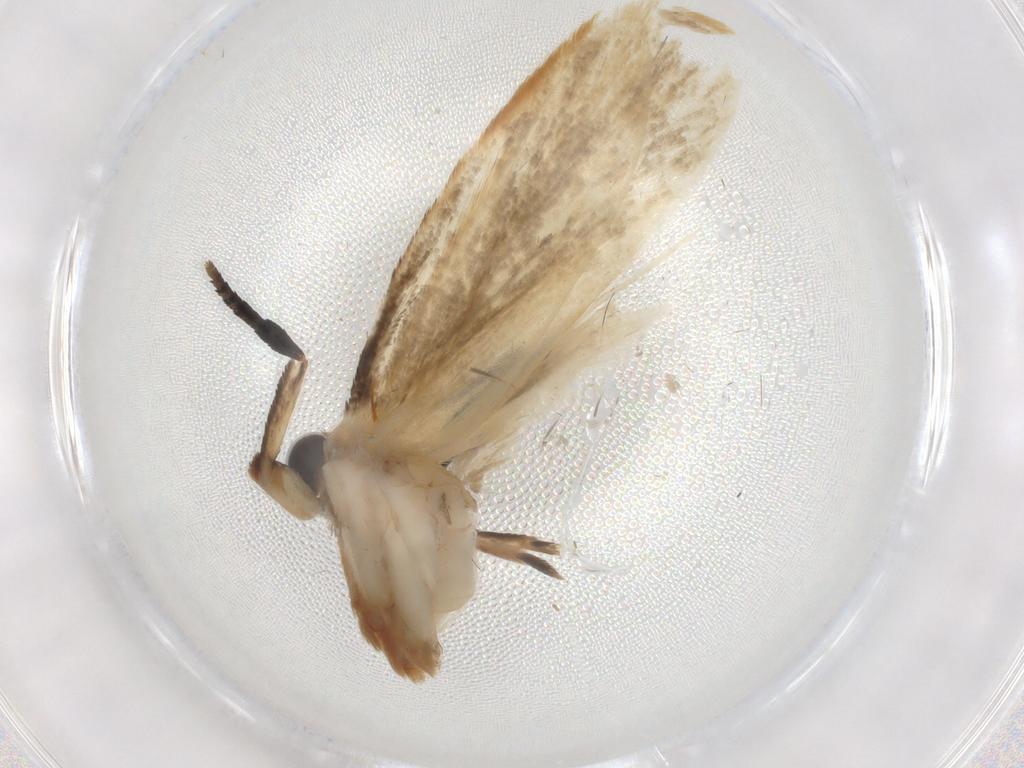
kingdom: Animalia
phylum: Arthropoda
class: Insecta
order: Lepidoptera
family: Tineidae
